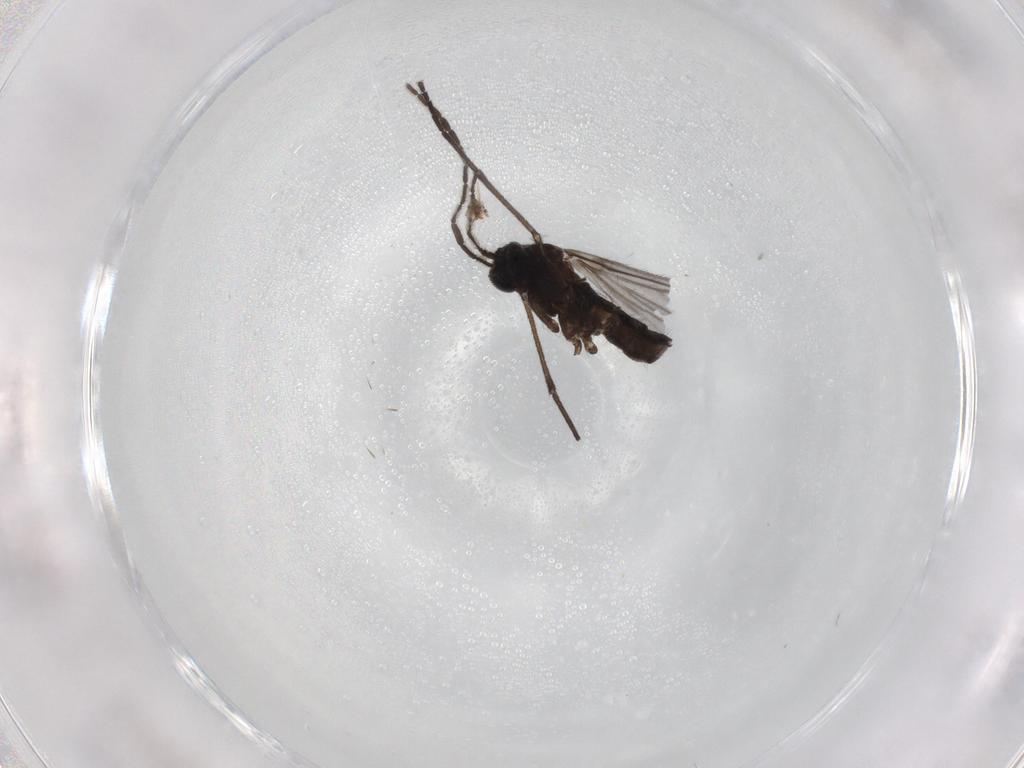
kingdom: Animalia
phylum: Arthropoda
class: Insecta
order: Diptera
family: Sciaridae
